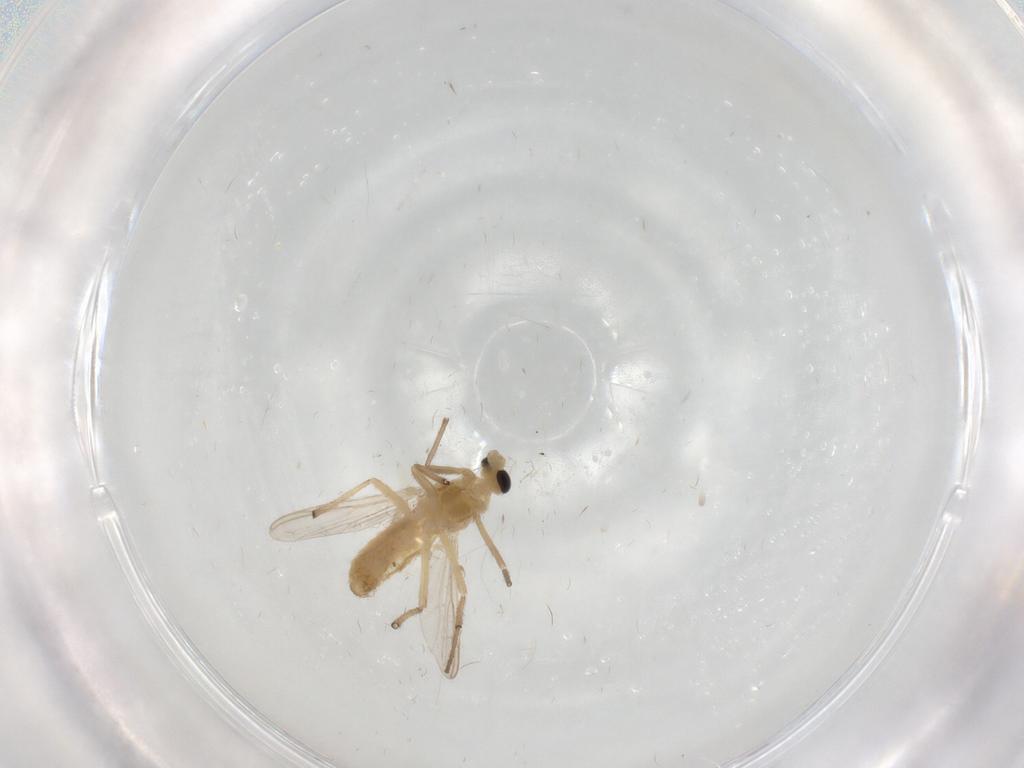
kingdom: Animalia
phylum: Arthropoda
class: Insecta
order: Diptera
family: Chironomidae
